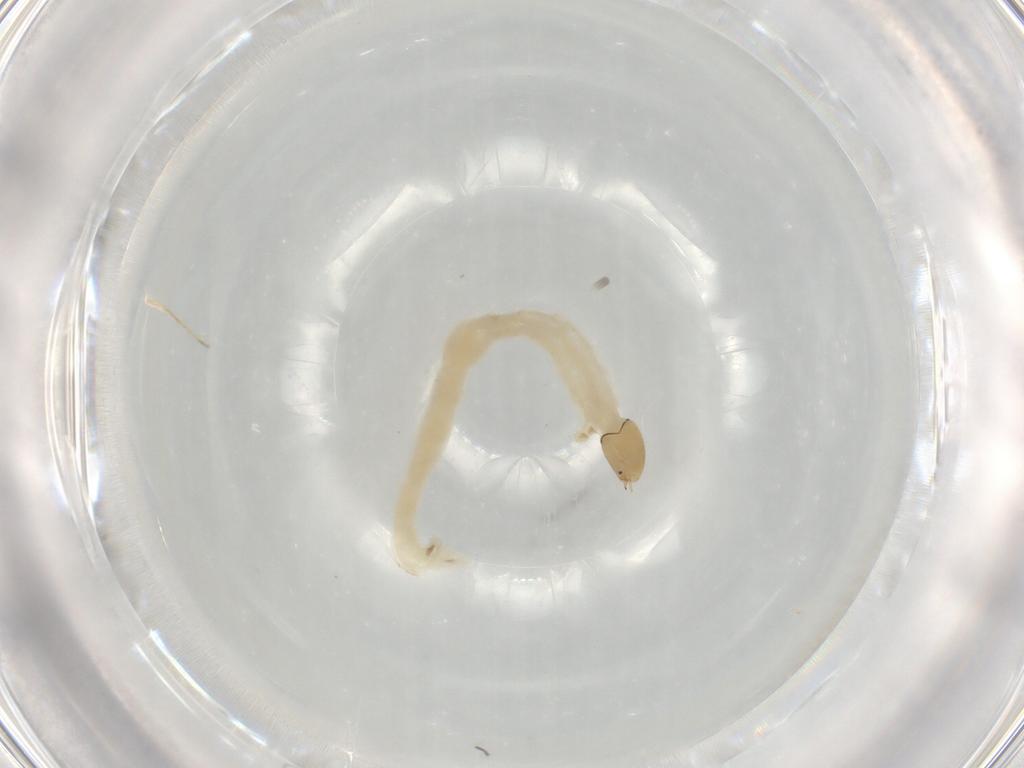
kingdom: Animalia
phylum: Arthropoda
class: Insecta
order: Diptera
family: Chironomidae
